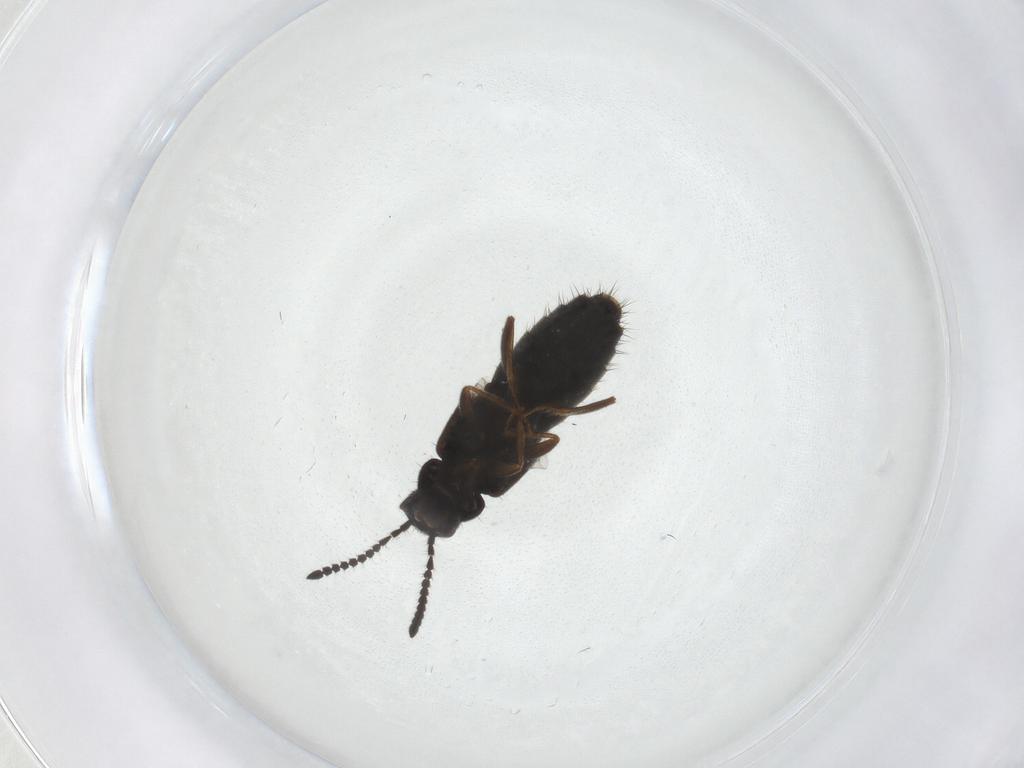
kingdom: Animalia
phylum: Arthropoda
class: Insecta
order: Coleoptera
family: Staphylinidae
